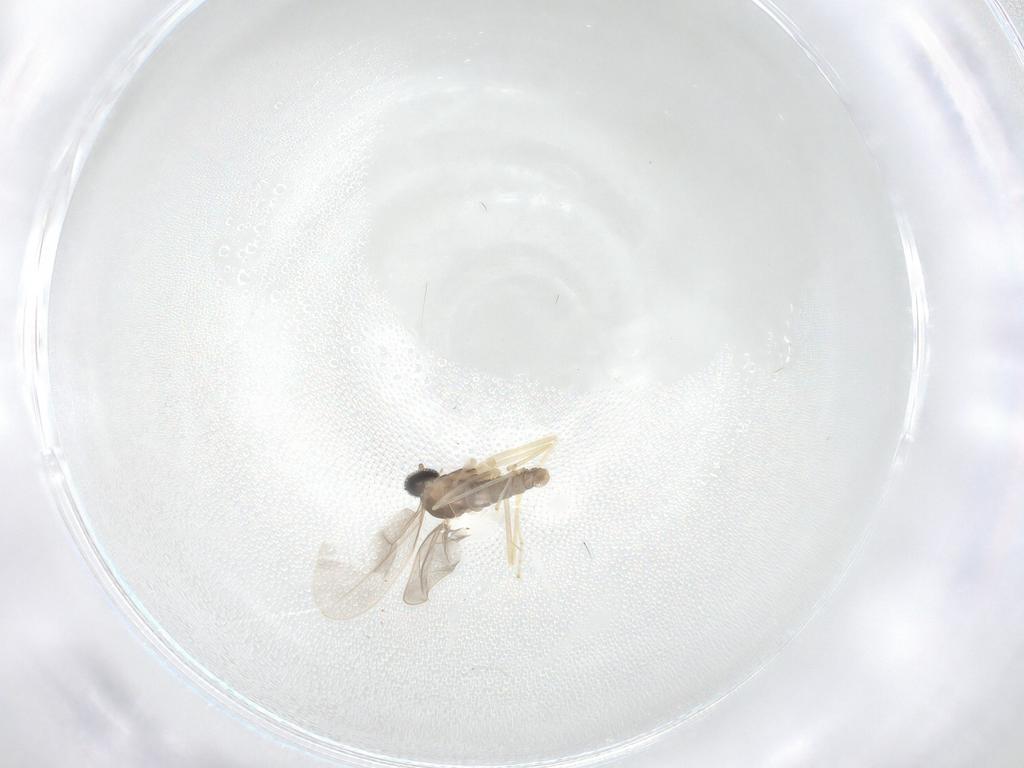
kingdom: Animalia
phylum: Arthropoda
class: Insecta
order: Diptera
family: Cecidomyiidae
